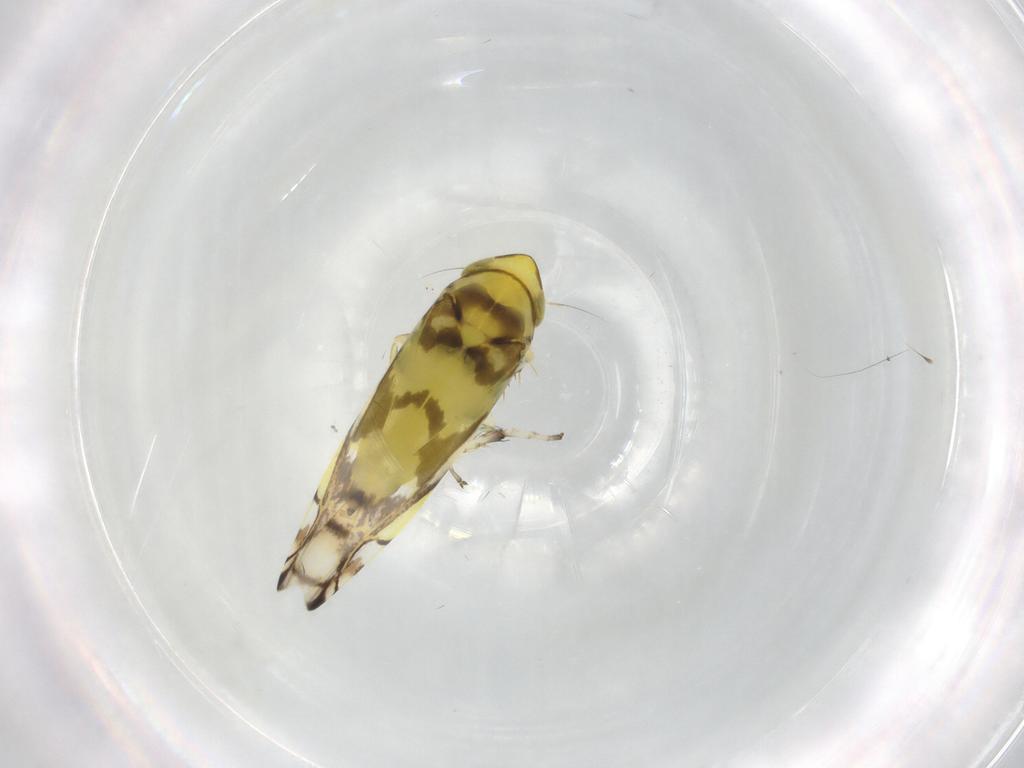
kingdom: Animalia
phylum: Arthropoda
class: Insecta
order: Hemiptera
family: Cicadellidae
